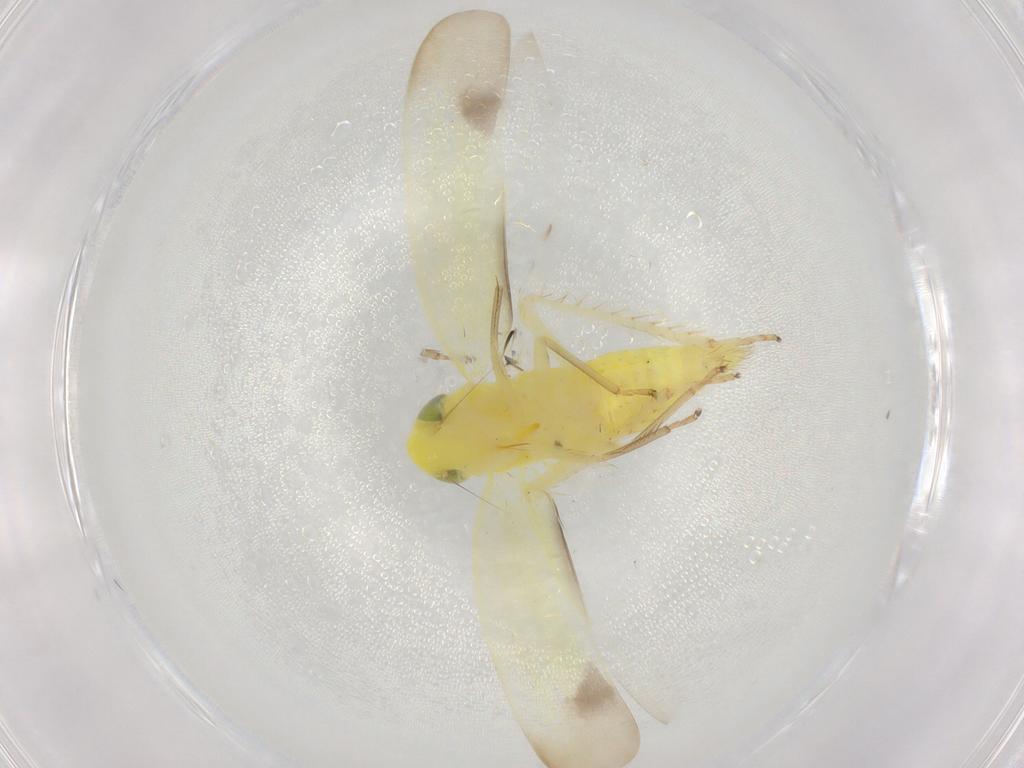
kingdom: Animalia
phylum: Arthropoda
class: Insecta
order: Hemiptera
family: Cicadellidae
